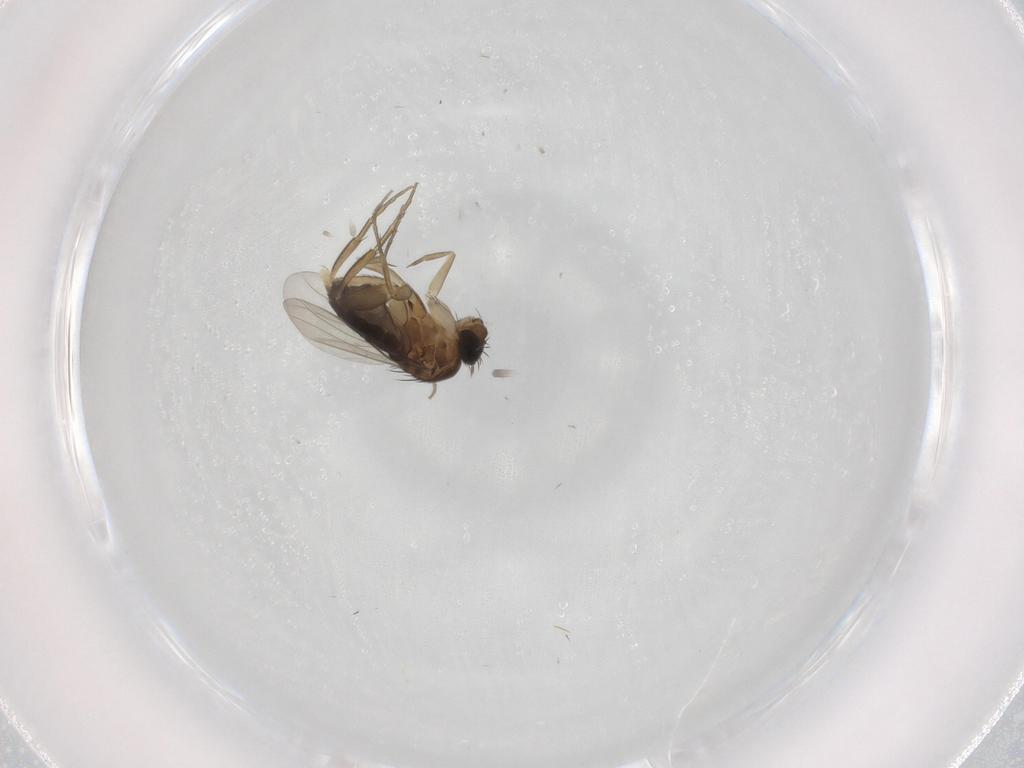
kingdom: Animalia
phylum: Arthropoda
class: Insecta
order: Diptera
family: Phoridae
